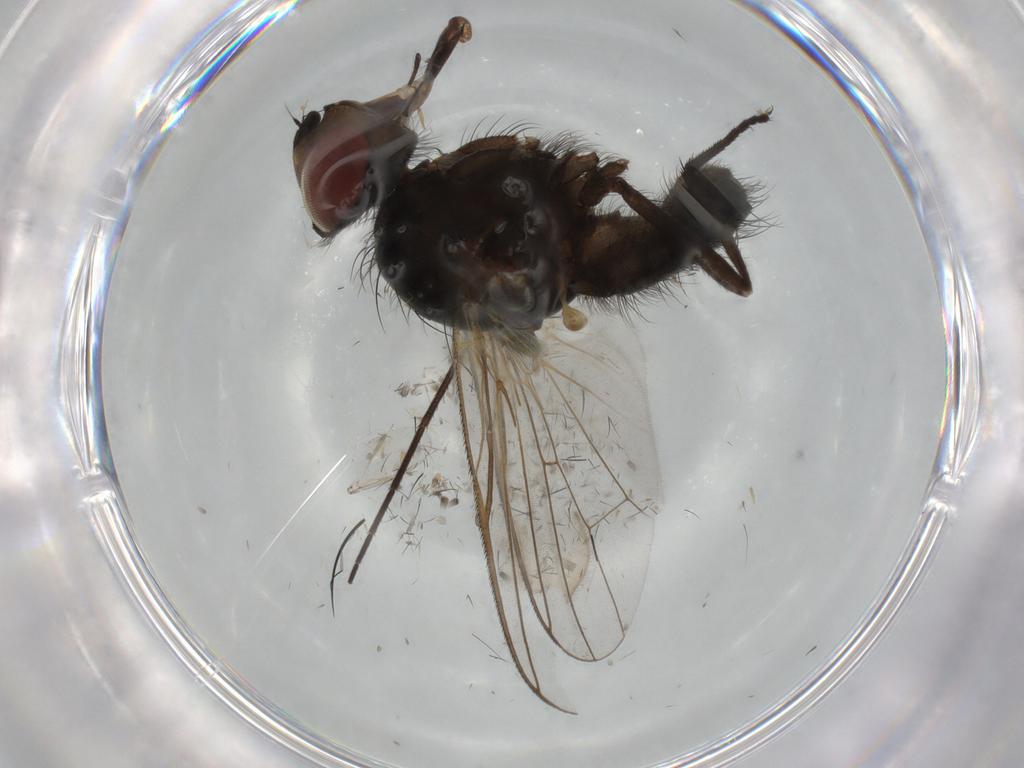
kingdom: Animalia
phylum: Arthropoda
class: Insecta
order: Diptera
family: Anthomyiidae
